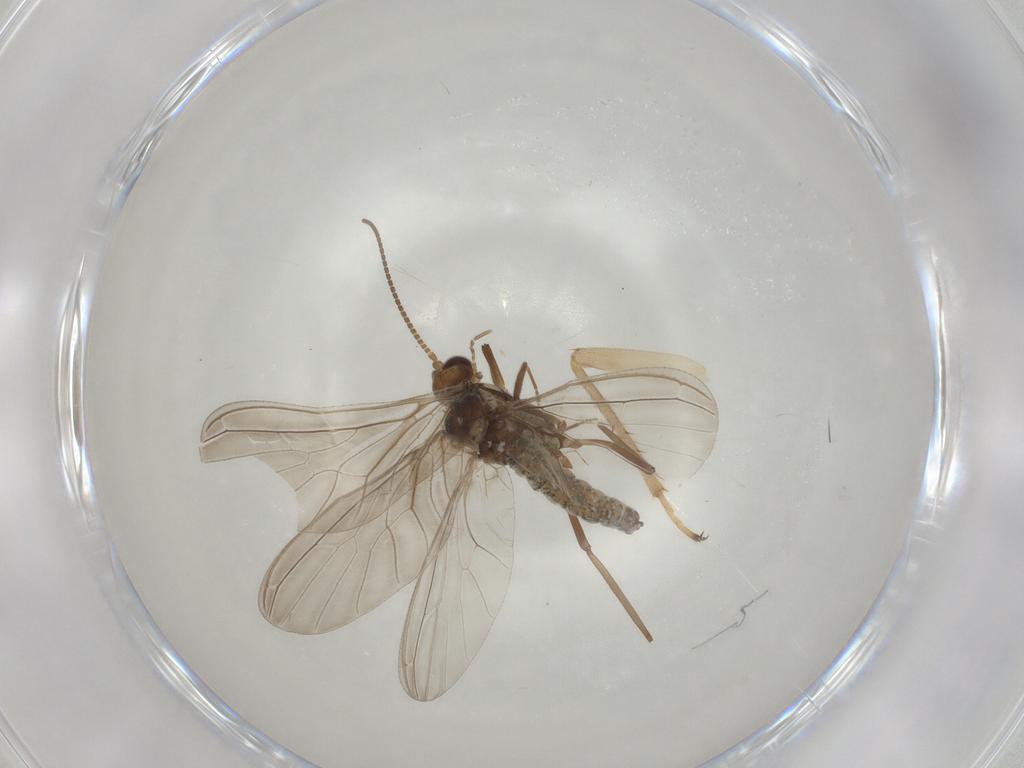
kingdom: Animalia
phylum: Arthropoda
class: Insecta
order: Neuroptera
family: Coniopterygidae
